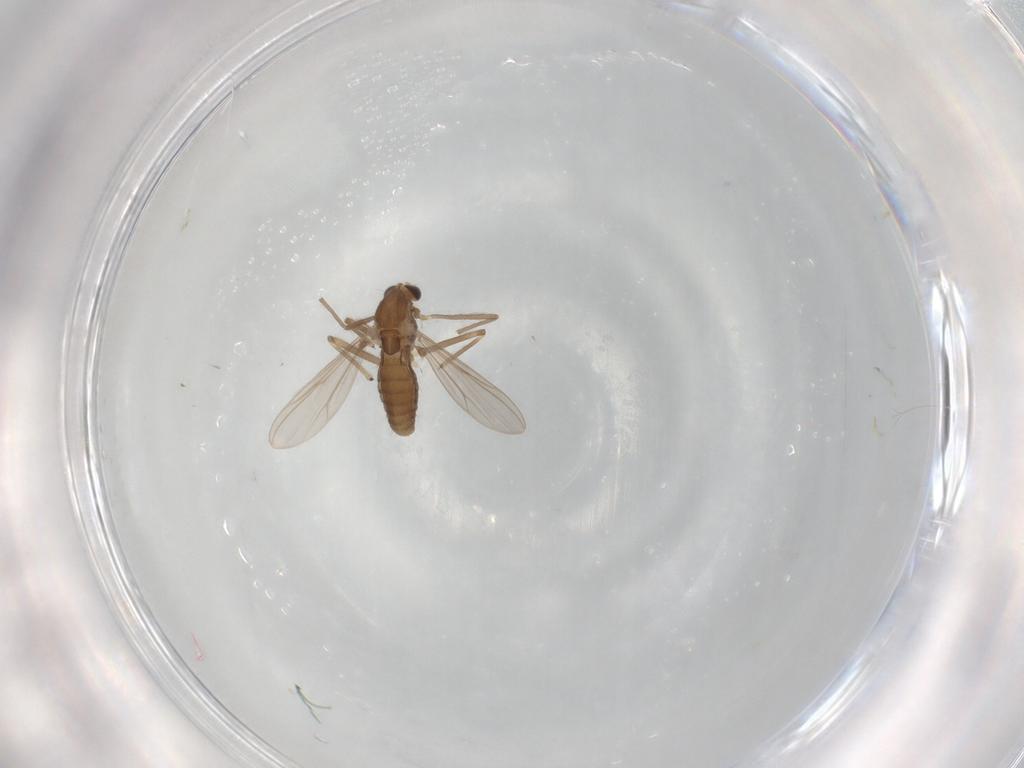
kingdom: Animalia
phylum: Arthropoda
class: Insecta
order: Diptera
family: Chironomidae
